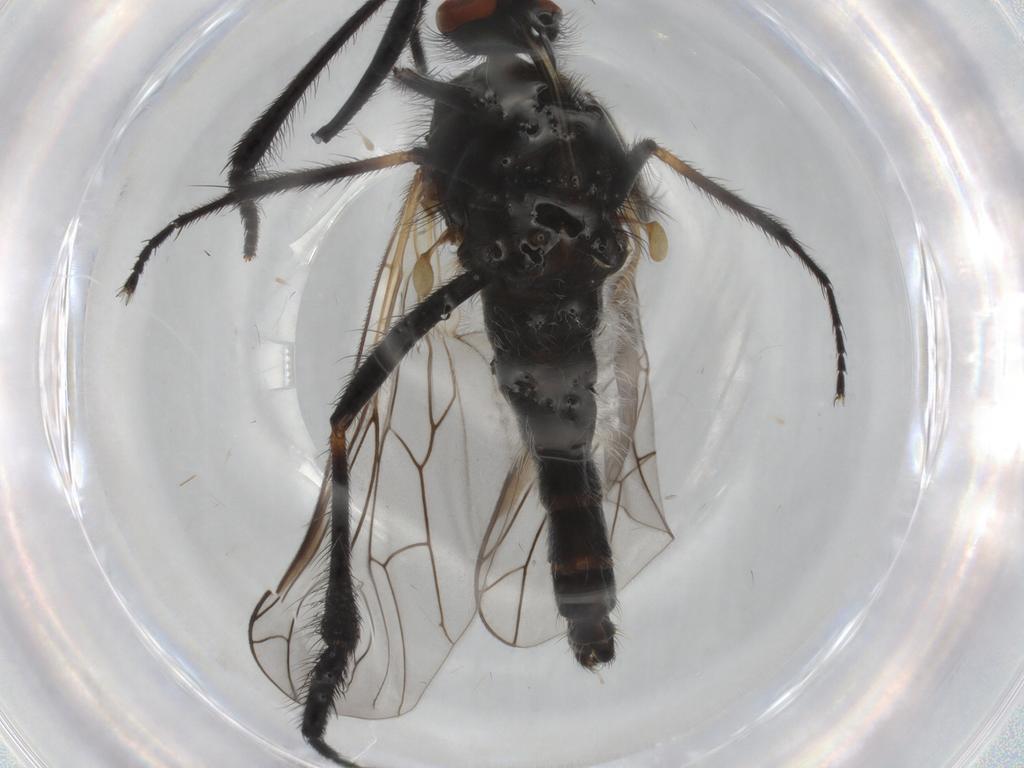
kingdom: Animalia
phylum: Arthropoda
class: Insecta
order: Diptera
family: Empididae
